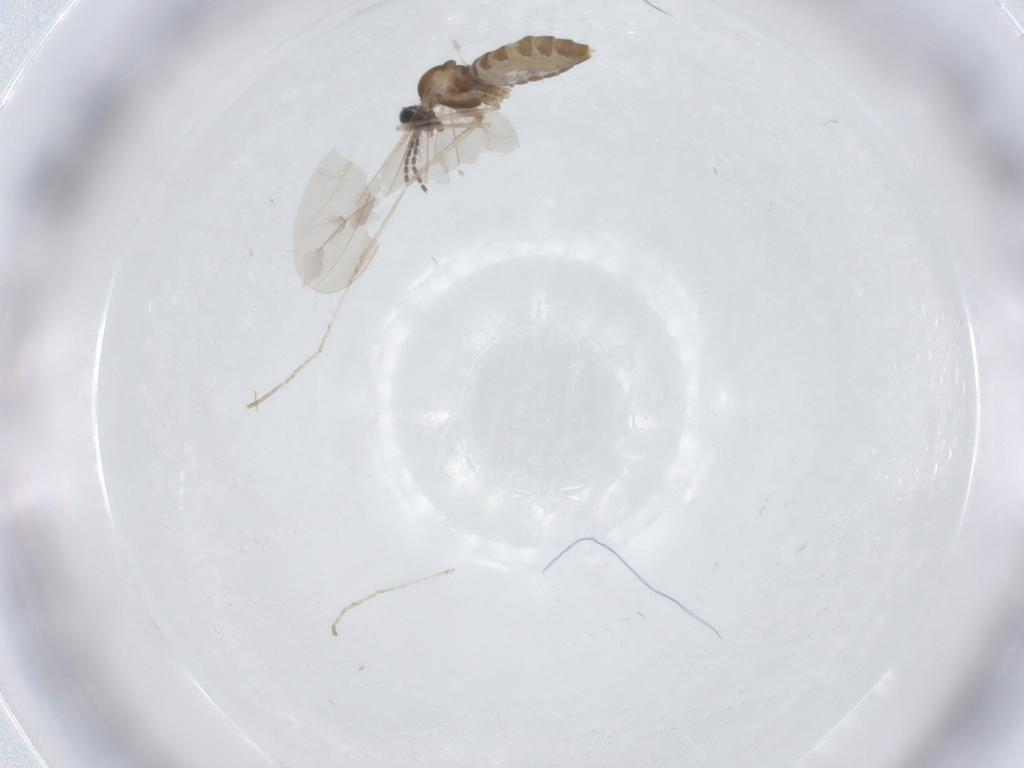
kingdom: Animalia
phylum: Arthropoda
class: Insecta
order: Diptera
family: Cecidomyiidae
